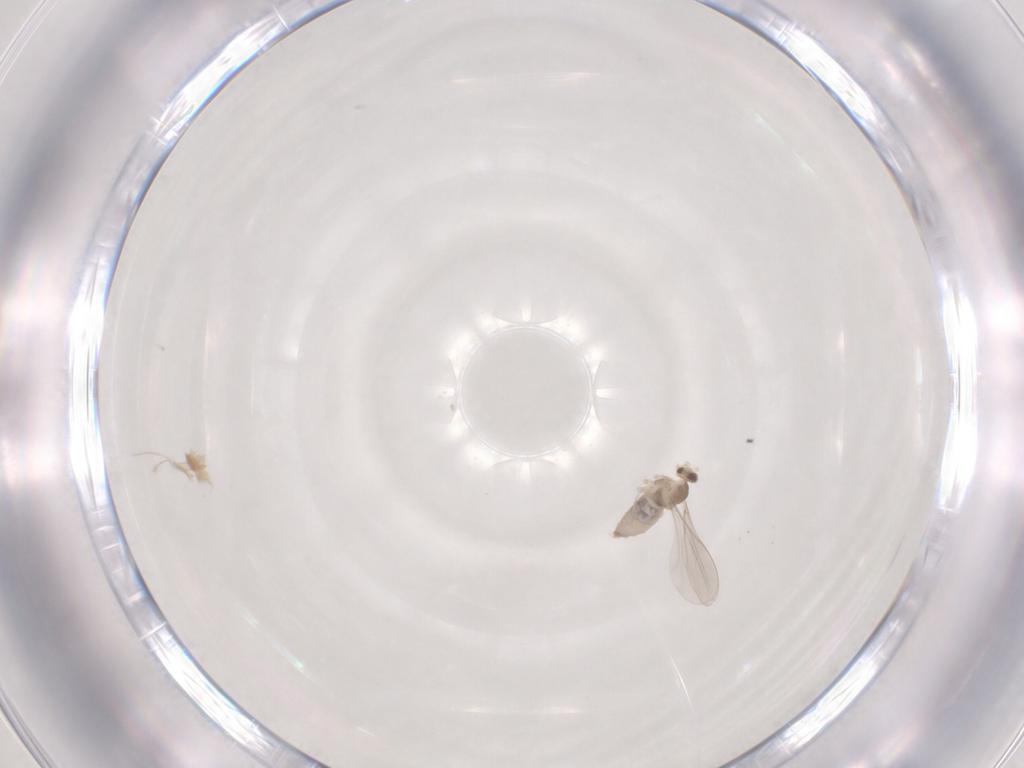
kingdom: Animalia
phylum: Arthropoda
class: Insecta
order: Diptera
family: Cecidomyiidae
